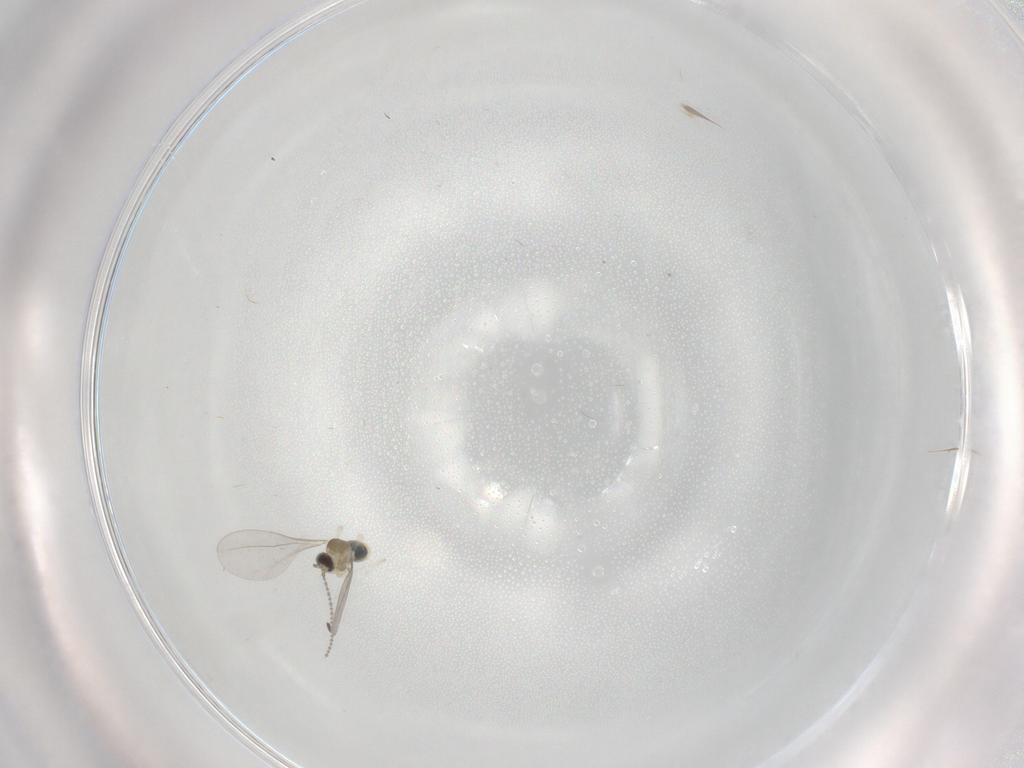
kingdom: Animalia
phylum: Arthropoda
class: Insecta
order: Diptera
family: Cecidomyiidae
